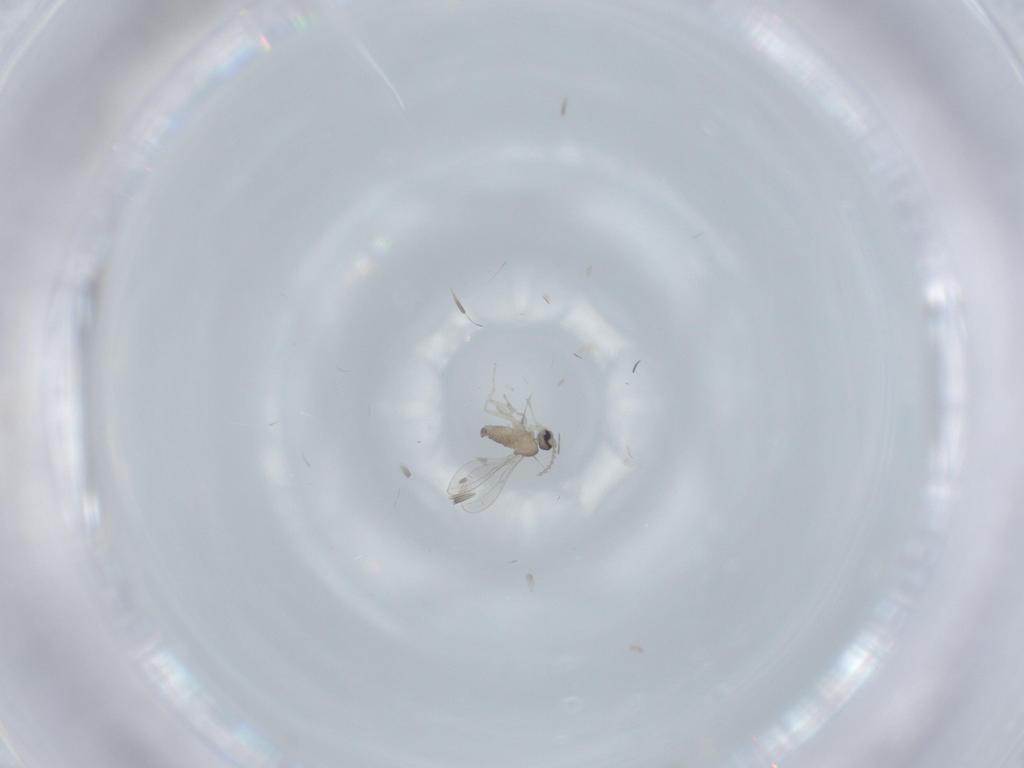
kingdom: Animalia
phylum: Arthropoda
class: Insecta
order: Diptera
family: Cecidomyiidae
